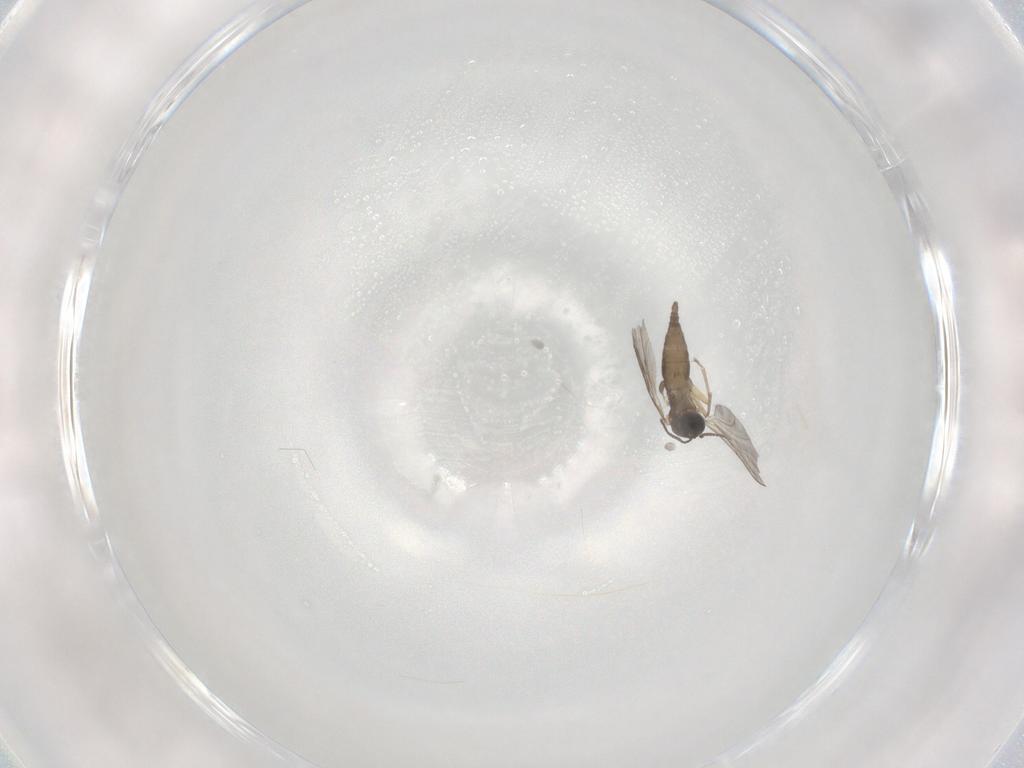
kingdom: Animalia
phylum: Arthropoda
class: Insecta
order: Diptera
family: Sciaridae
